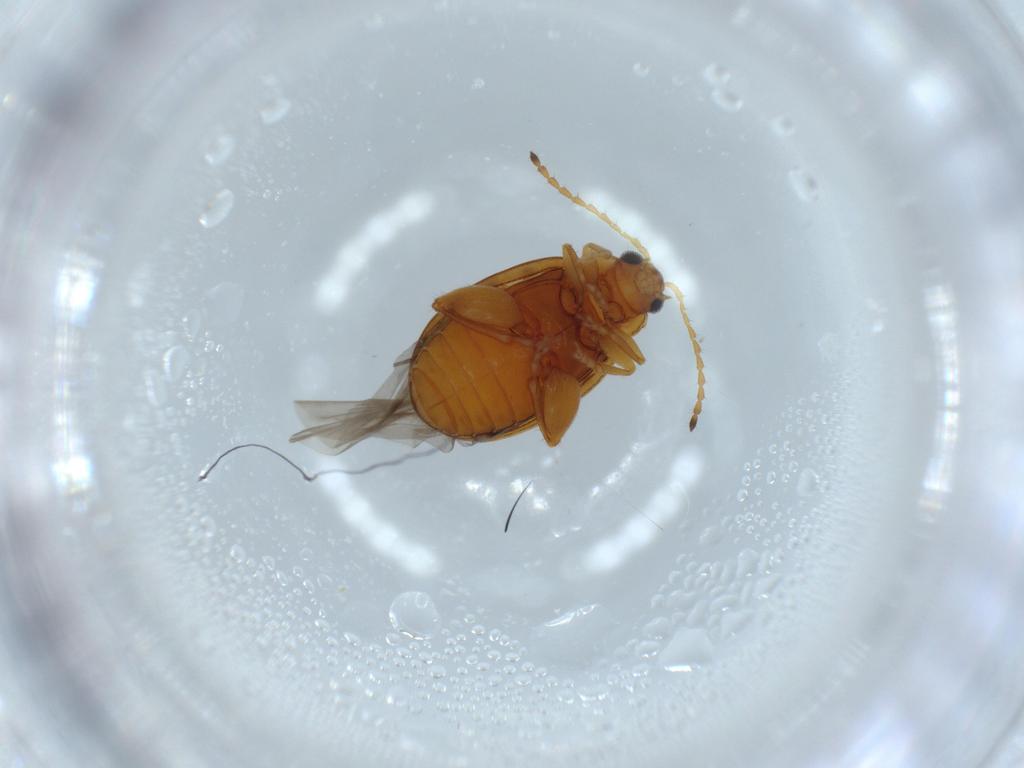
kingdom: Animalia
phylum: Arthropoda
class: Insecta
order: Coleoptera
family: Chrysomelidae
